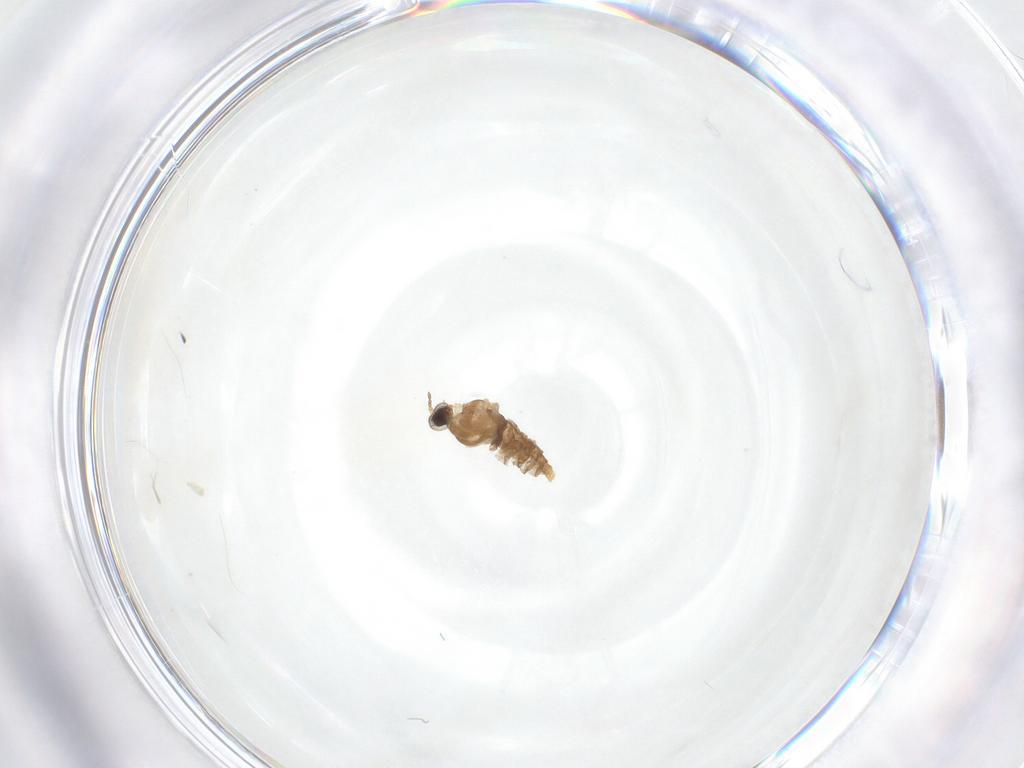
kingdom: Animalia
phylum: Arthropoda
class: Insecta
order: Diptera
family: Cecidomyiidae
